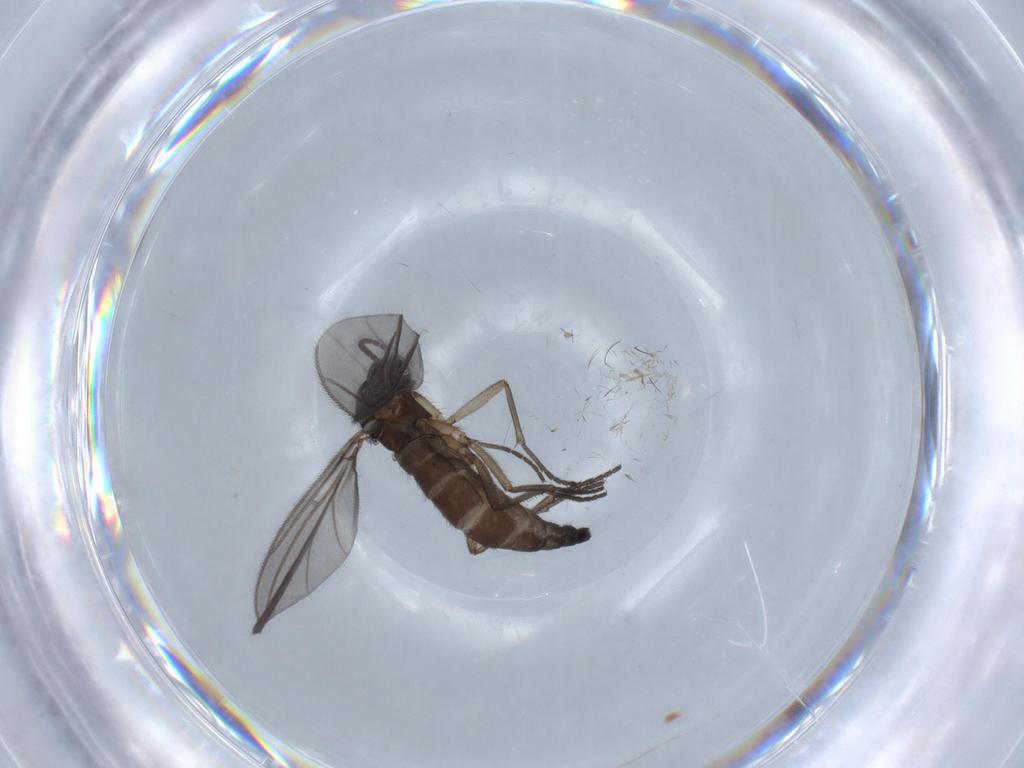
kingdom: Animalia
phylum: Arthropoda
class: Insecta
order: Diptera
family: Sciaridae
